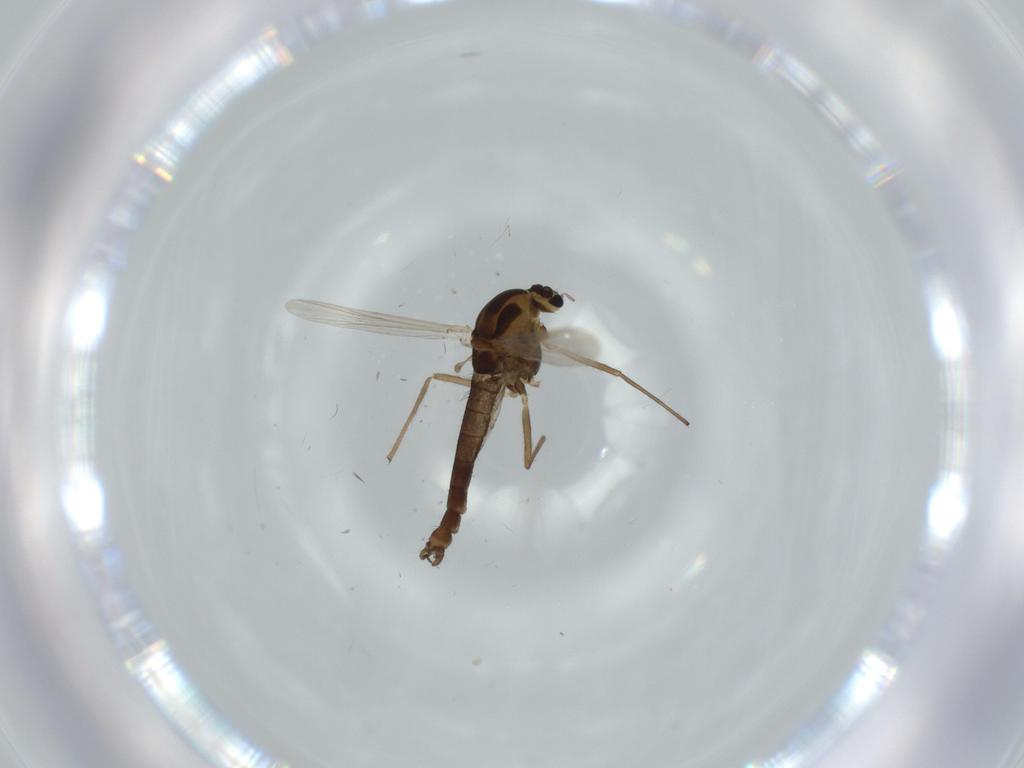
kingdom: Animalia
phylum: Arthropoda
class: Insecta
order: Diptera
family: Chironomidae
